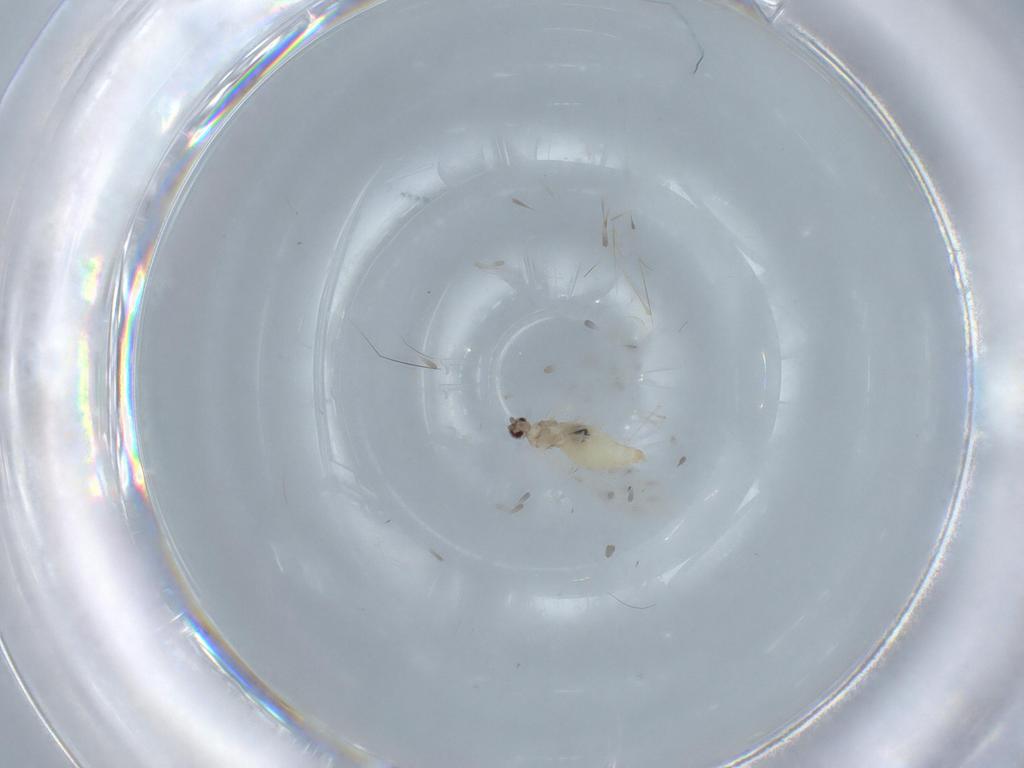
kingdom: Animalia
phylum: Arthropoda
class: Insecta
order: Diptera
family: Cecidomyiidae
